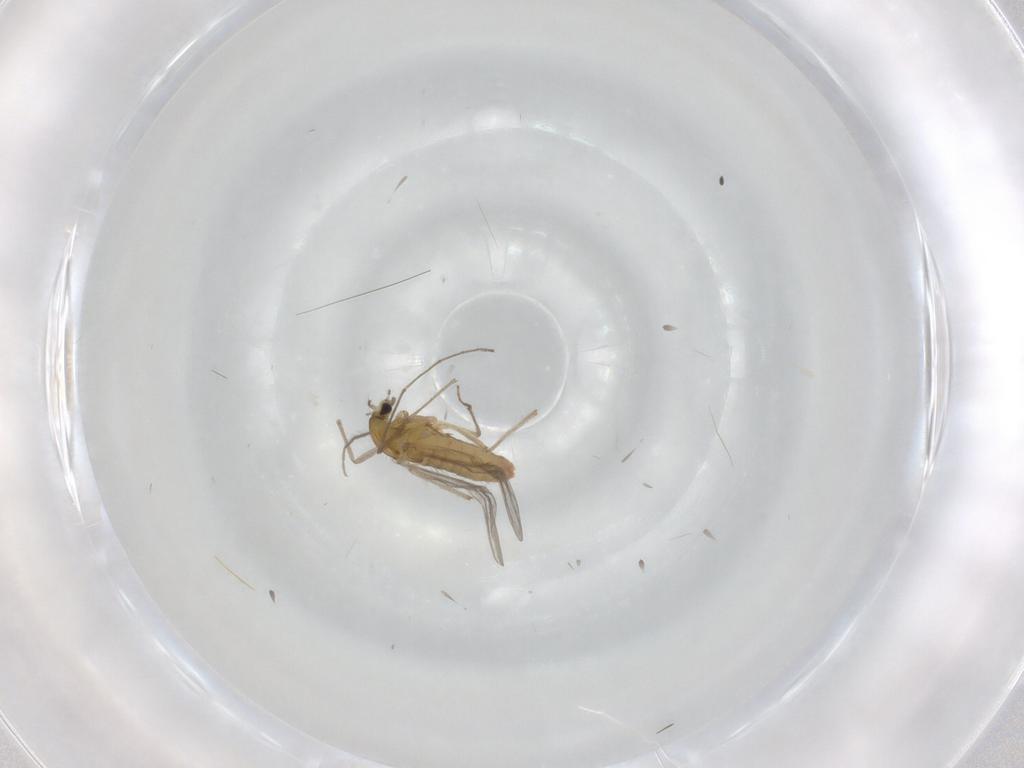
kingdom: Animalia
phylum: Arthropoda
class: Insecta
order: Diptera
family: Chironomidae
